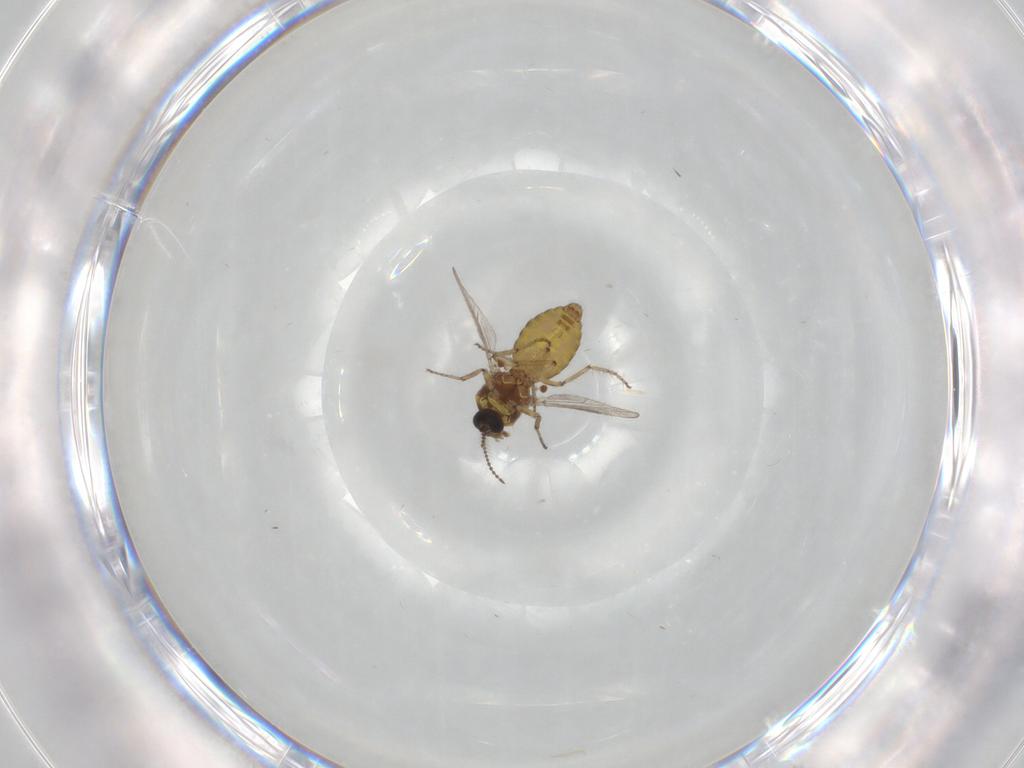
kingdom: Animalia
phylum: Arthropoda
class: Insecta
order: Diptera
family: Ceratopogonidae
